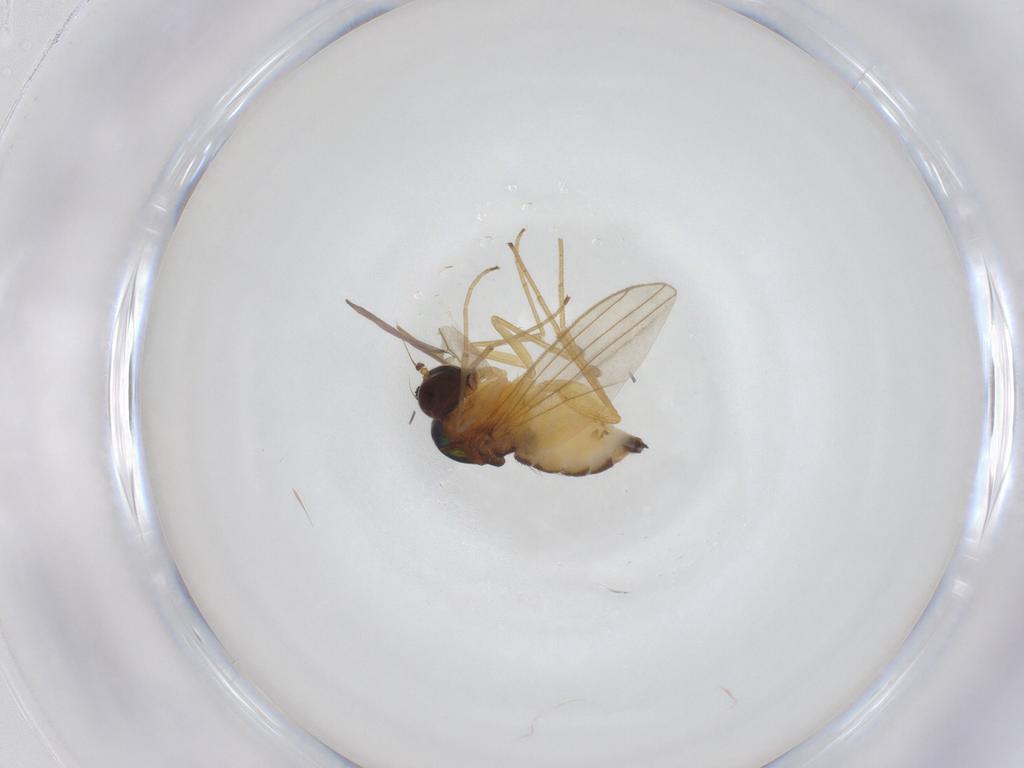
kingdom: Animalia
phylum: Arthropoda
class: Insecta
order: Diptera
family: Dolichopodidae
